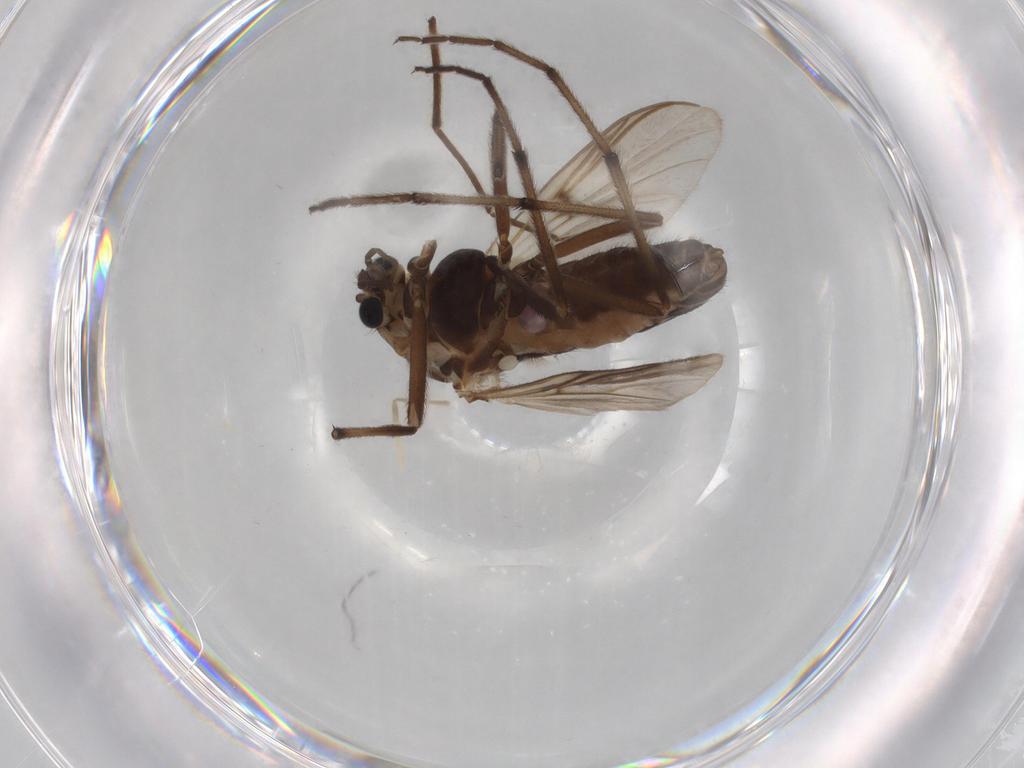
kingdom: Animalia
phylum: Arthropoda
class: Insecta
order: Diptera
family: Chironomidae
